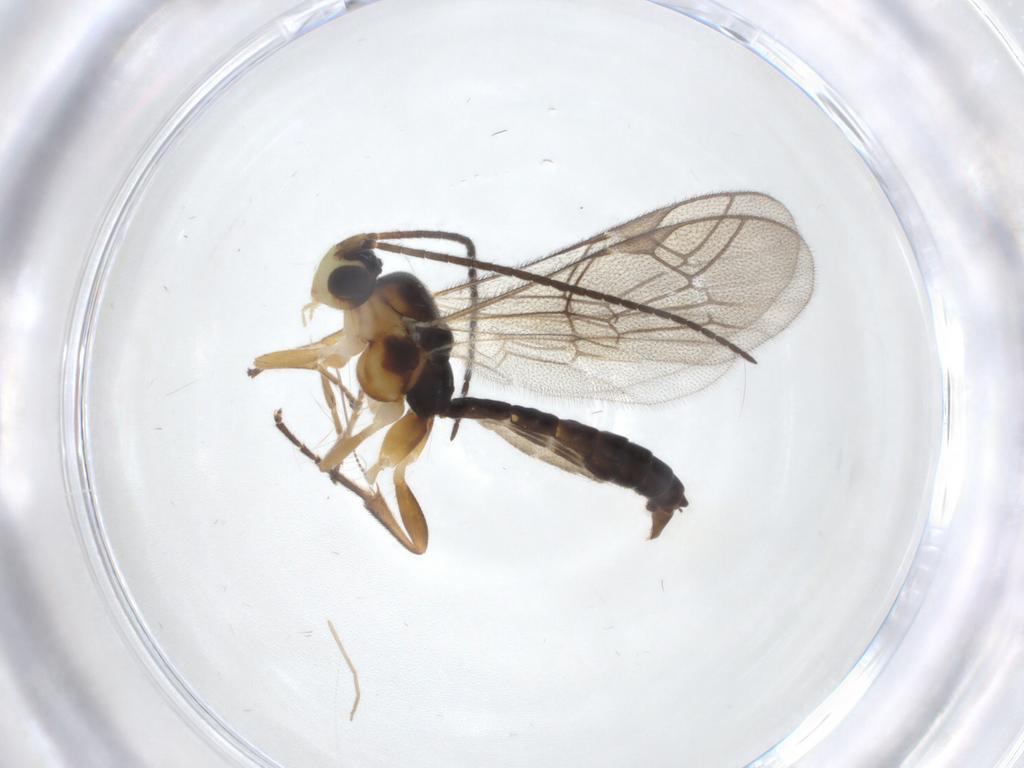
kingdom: Animalia
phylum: Arthropoda
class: Insecta
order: Hymenoptera
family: Ichneumonidae
